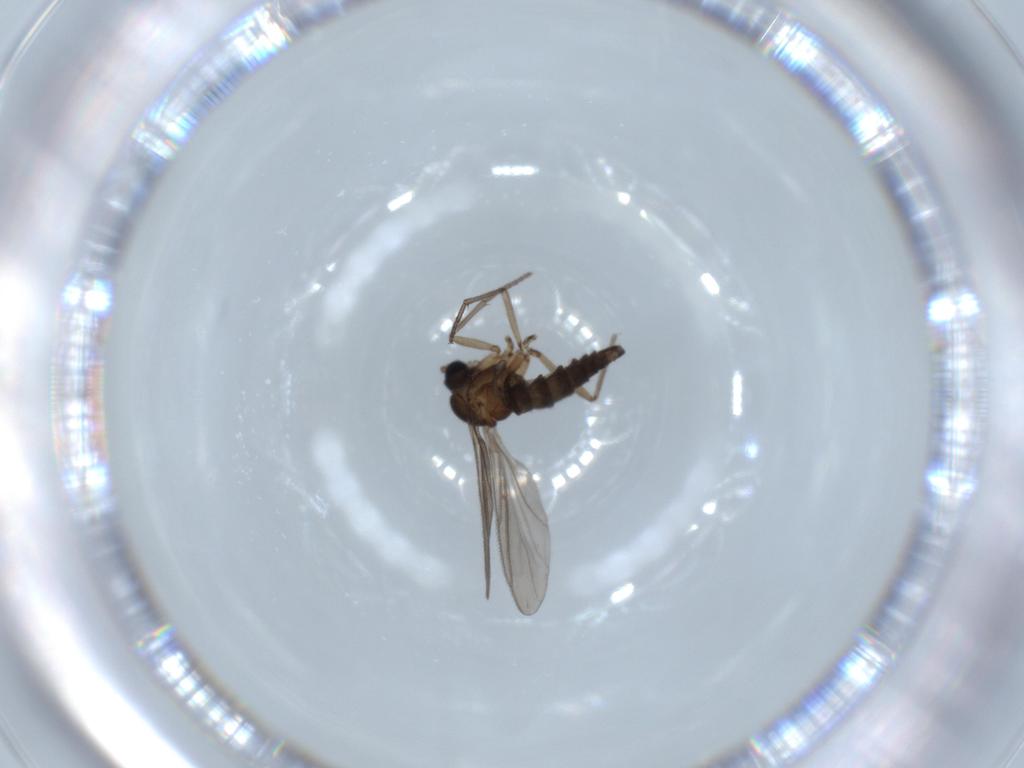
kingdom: Animalia
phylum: Arthropoda
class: Insecta
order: Diptera
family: Sciaridae
